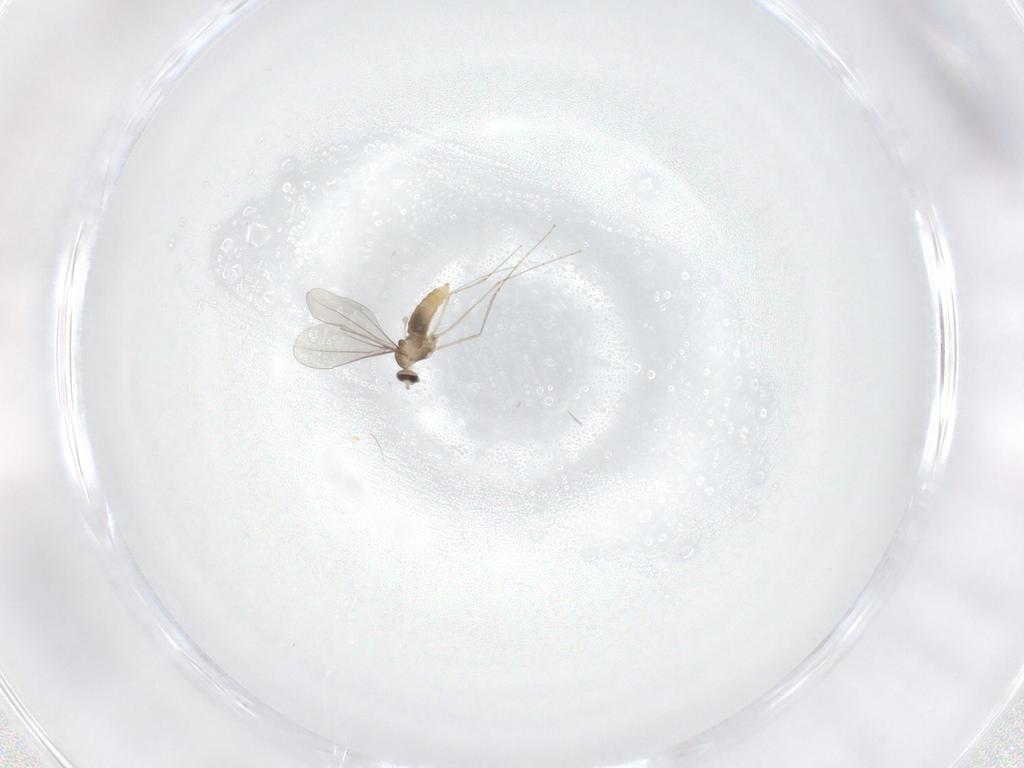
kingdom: Animalia
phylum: Arthropoda
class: Insecta
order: Diptera
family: Cecidomyiidae
